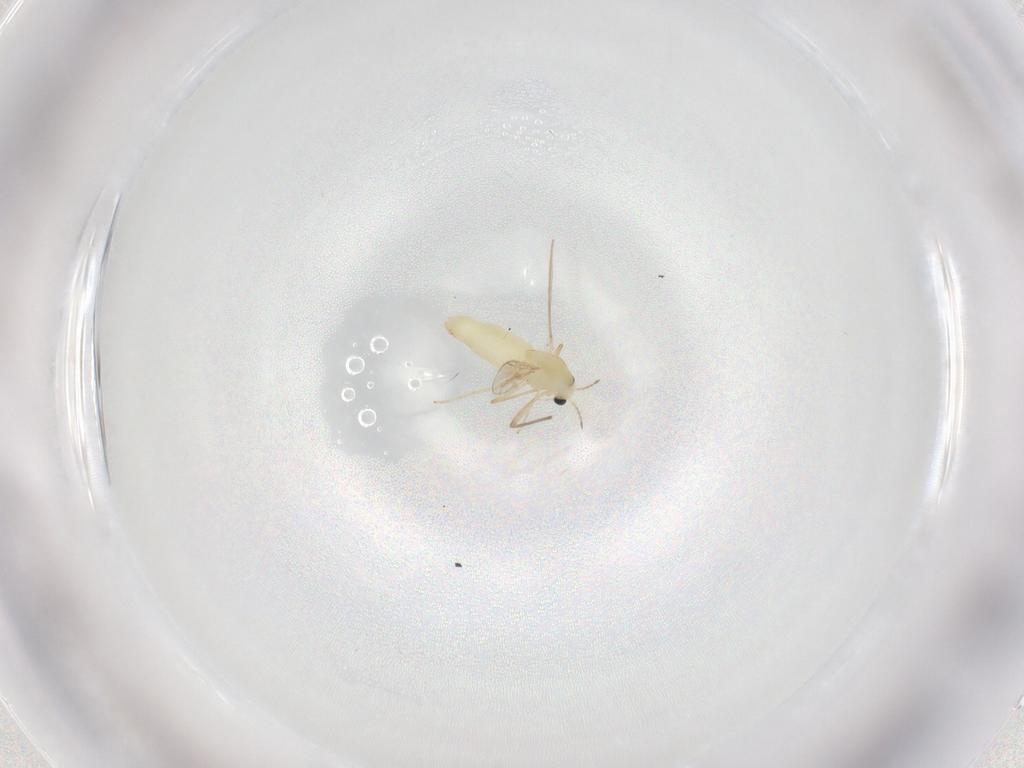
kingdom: Animalia
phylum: Arthropoda
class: Insecta
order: Diptera
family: Chironomidae
